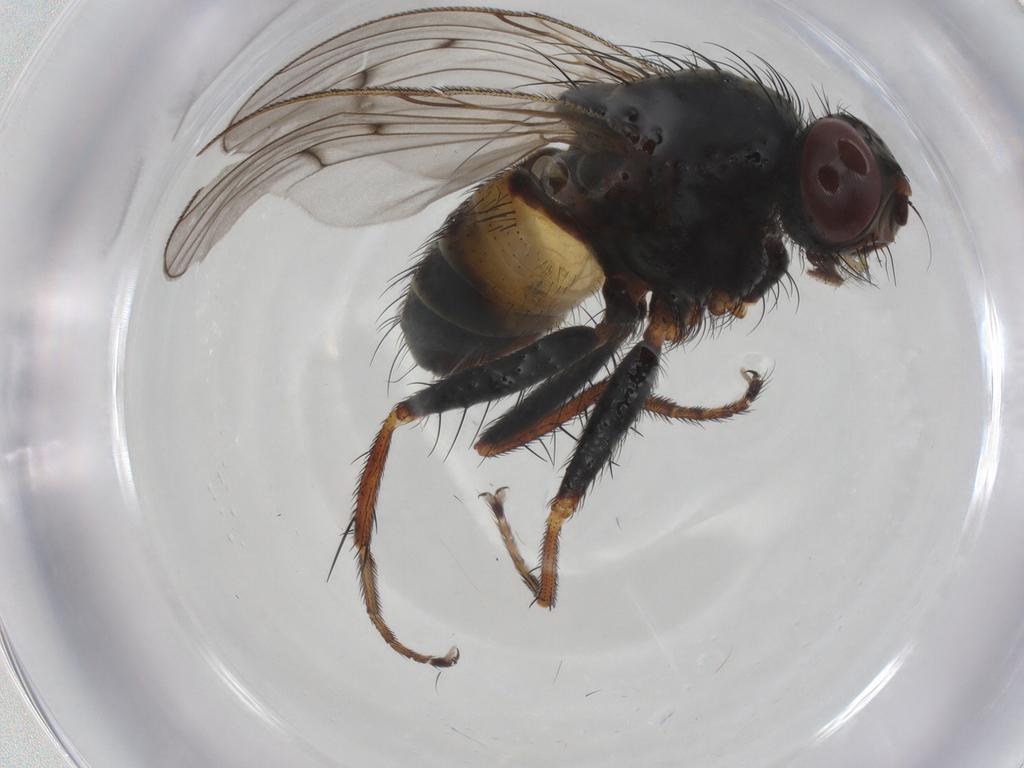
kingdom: Animalia
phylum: Arthropoda
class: Insecta
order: Diptera
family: Muscidae
